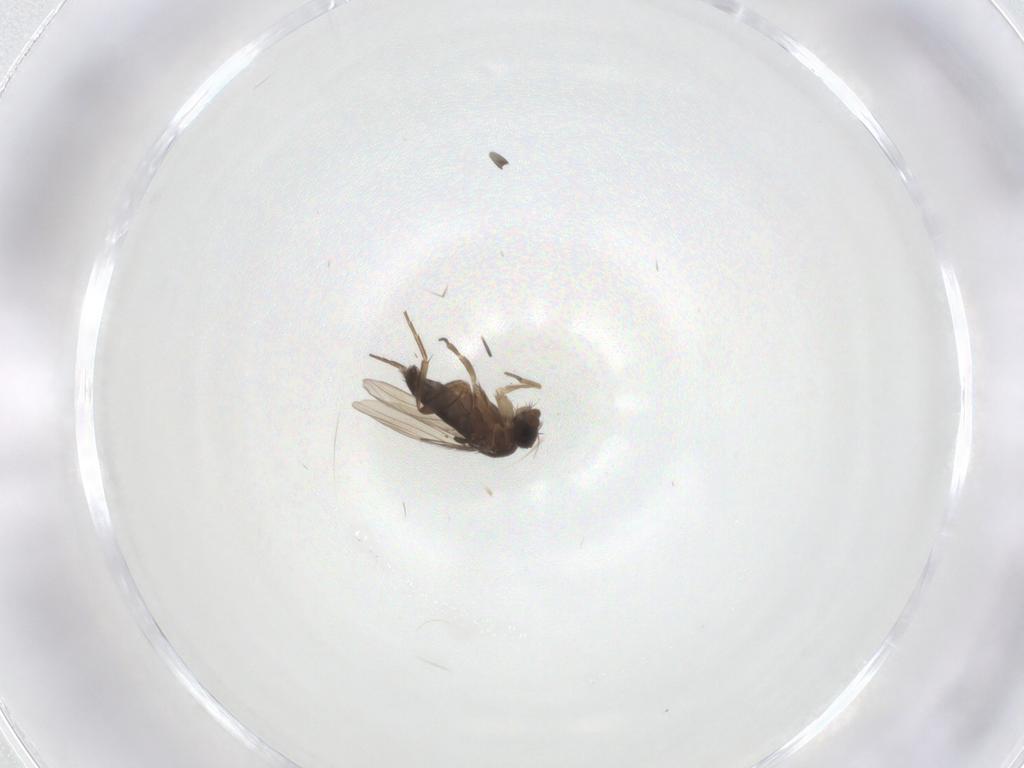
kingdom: Animalia
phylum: Arthropoda
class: Insecta
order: Diptera
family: Phoridae
